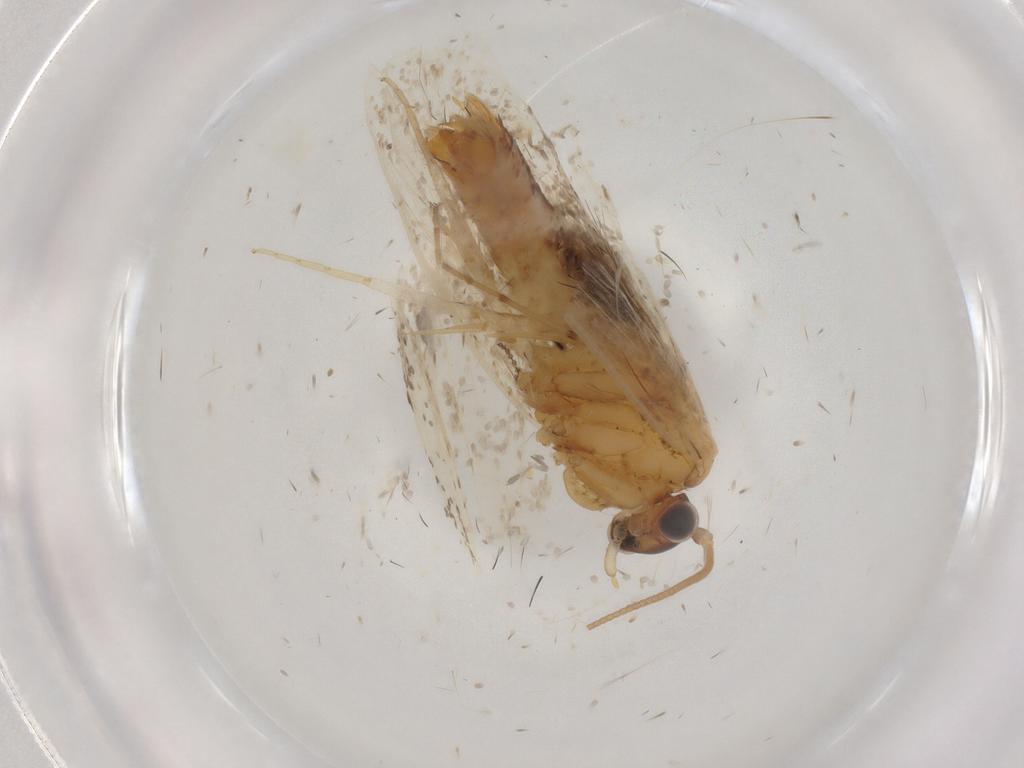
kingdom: Animalia
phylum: Arthropoda
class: Insecta
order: Lepidoptera
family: Nepticulidae
